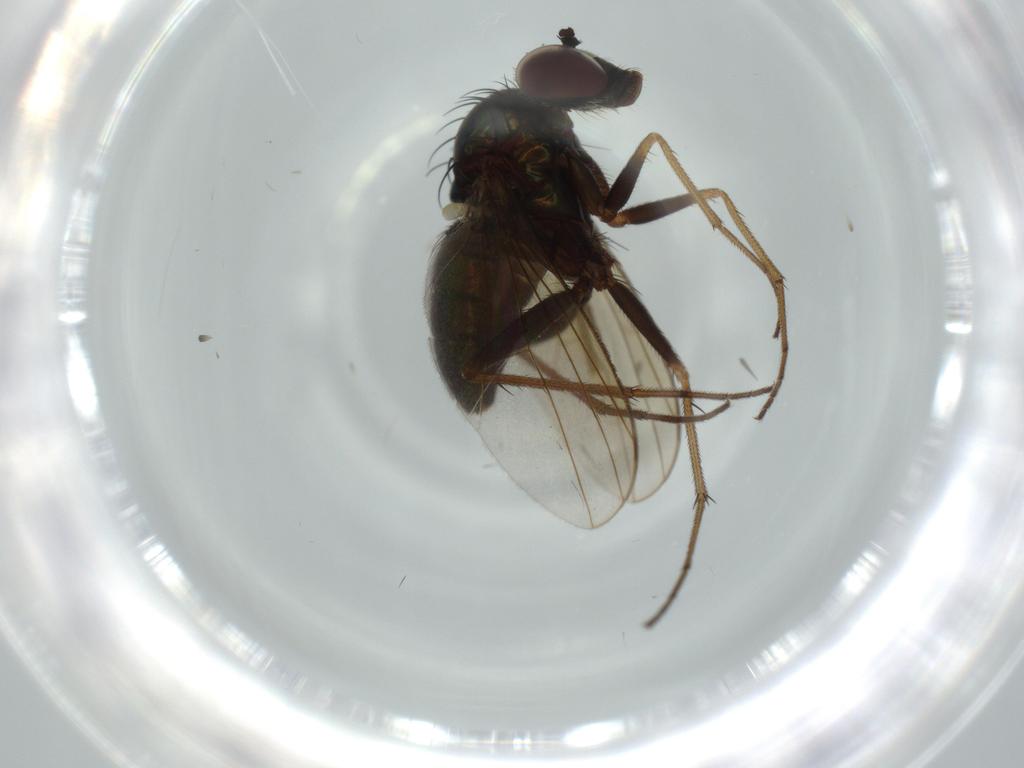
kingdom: Animalia
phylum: Arthropoda
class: Insecta
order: Diptera
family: Dolichopodidae
